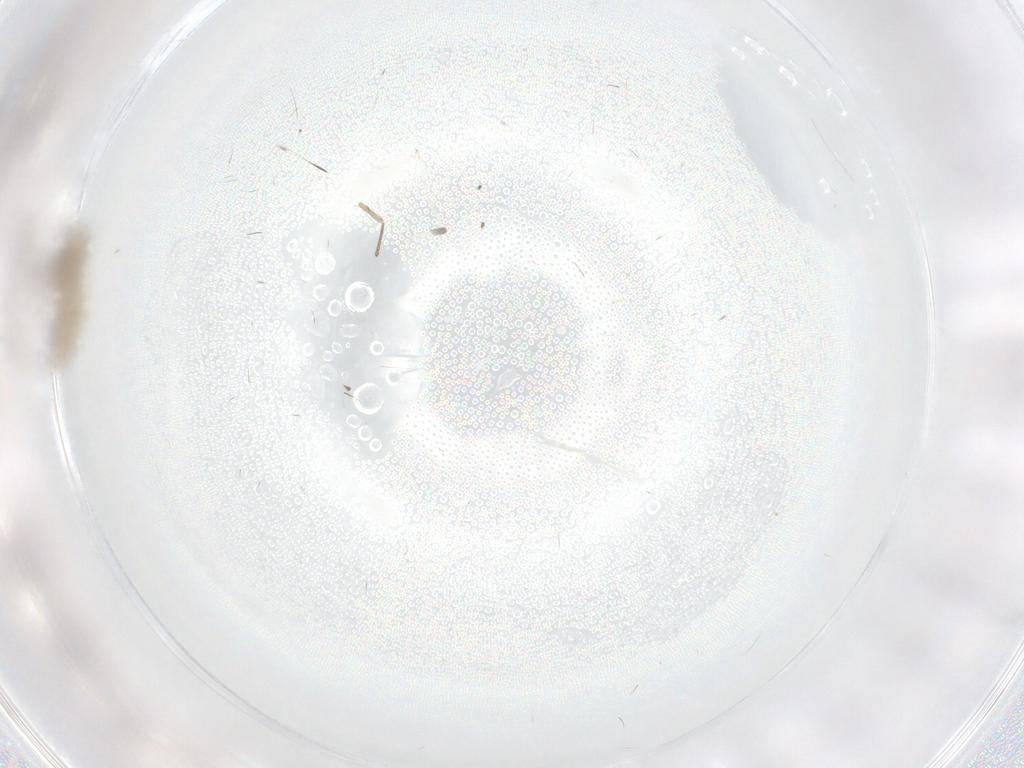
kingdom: Animalia
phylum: Arthropoda
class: Insecta
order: Diptera
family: Chironomidae
